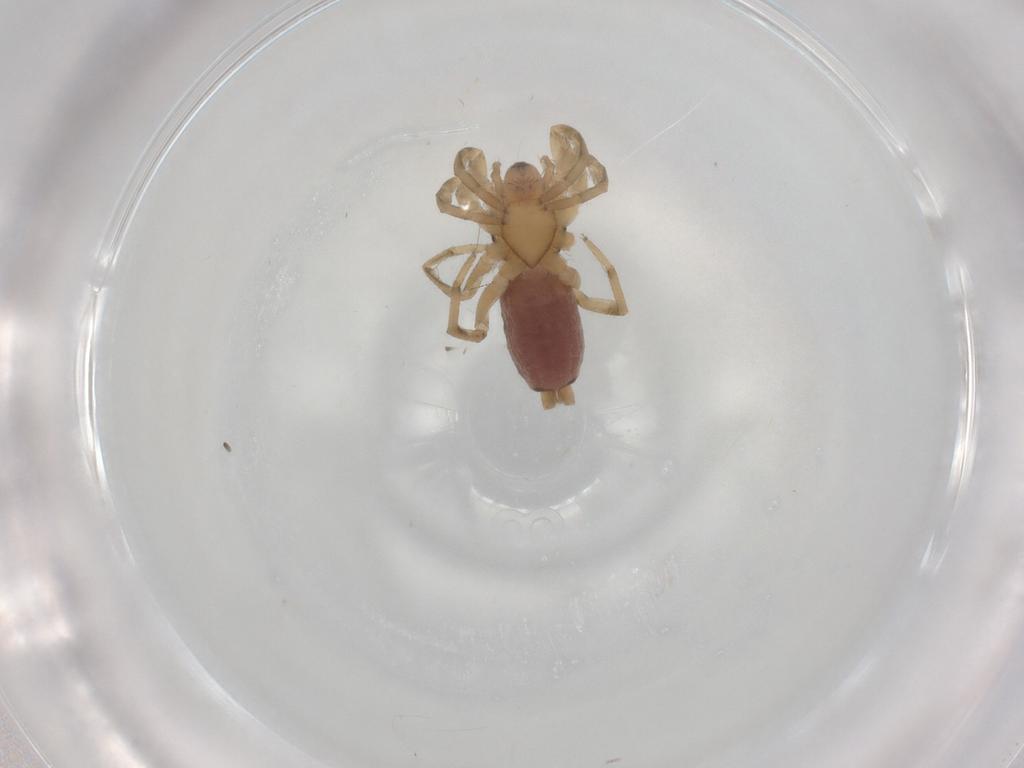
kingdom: Animalia
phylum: Arthropoda
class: Arachnida
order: Araneae
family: Gnaphosidae
